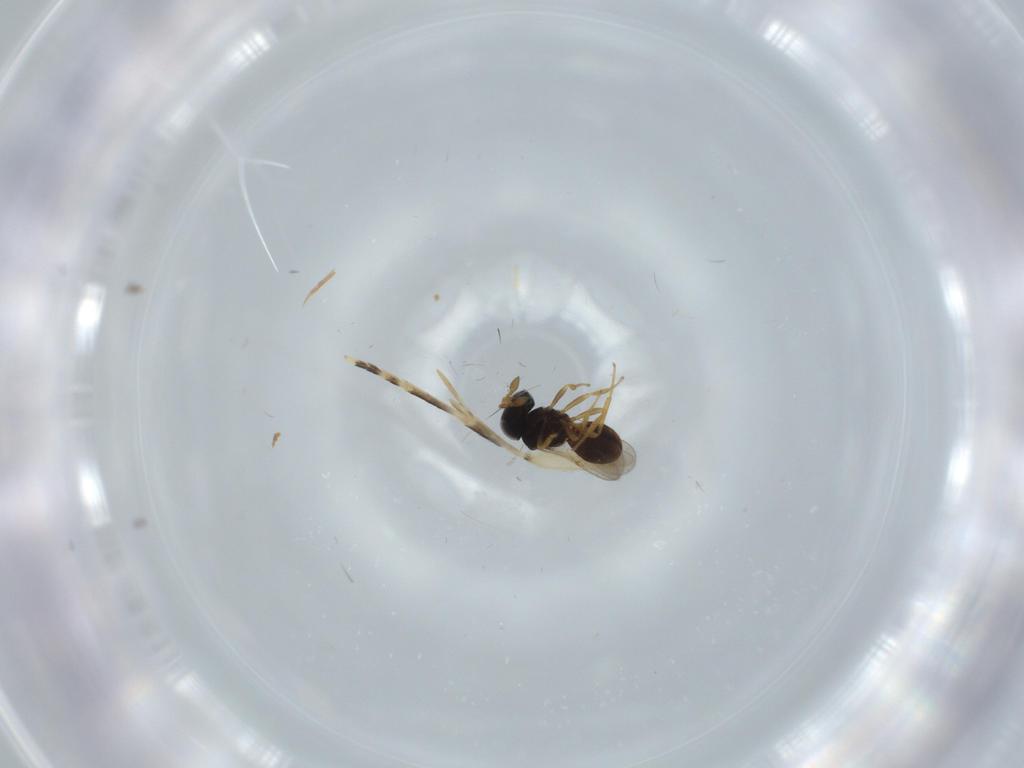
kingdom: Animalia
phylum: Arthropoda
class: Insecta
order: Hymenoptera
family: Scelionidae
